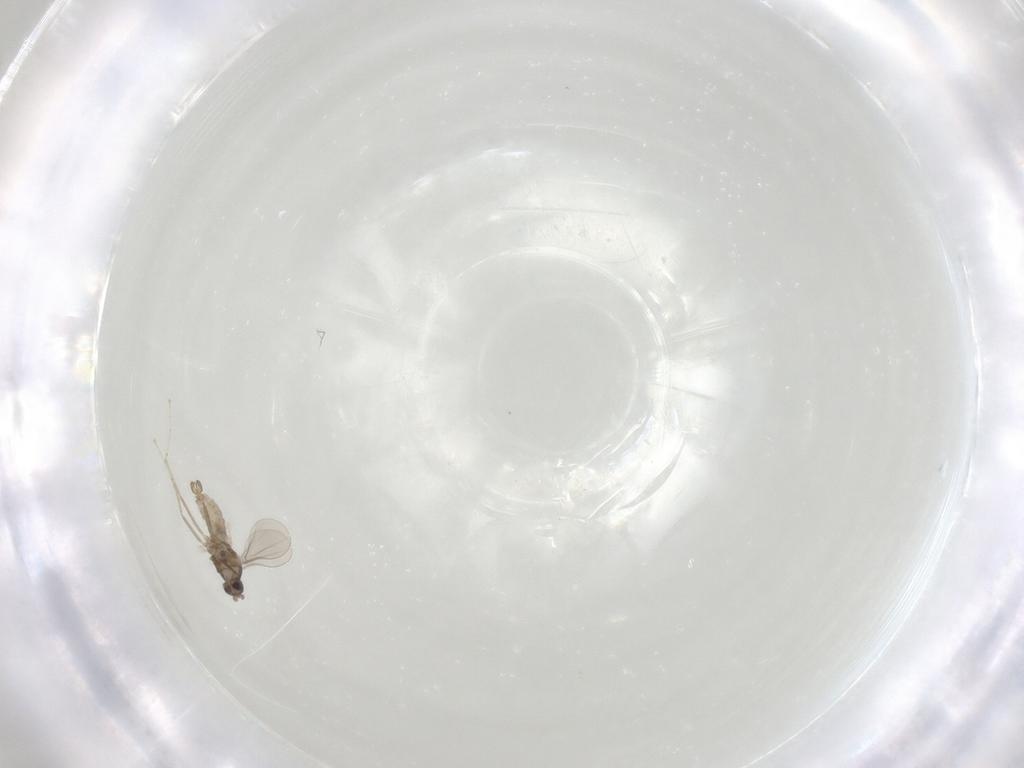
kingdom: Animalia
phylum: Arthropoda
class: Insecta
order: Diptera
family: Cecidomyiidae
